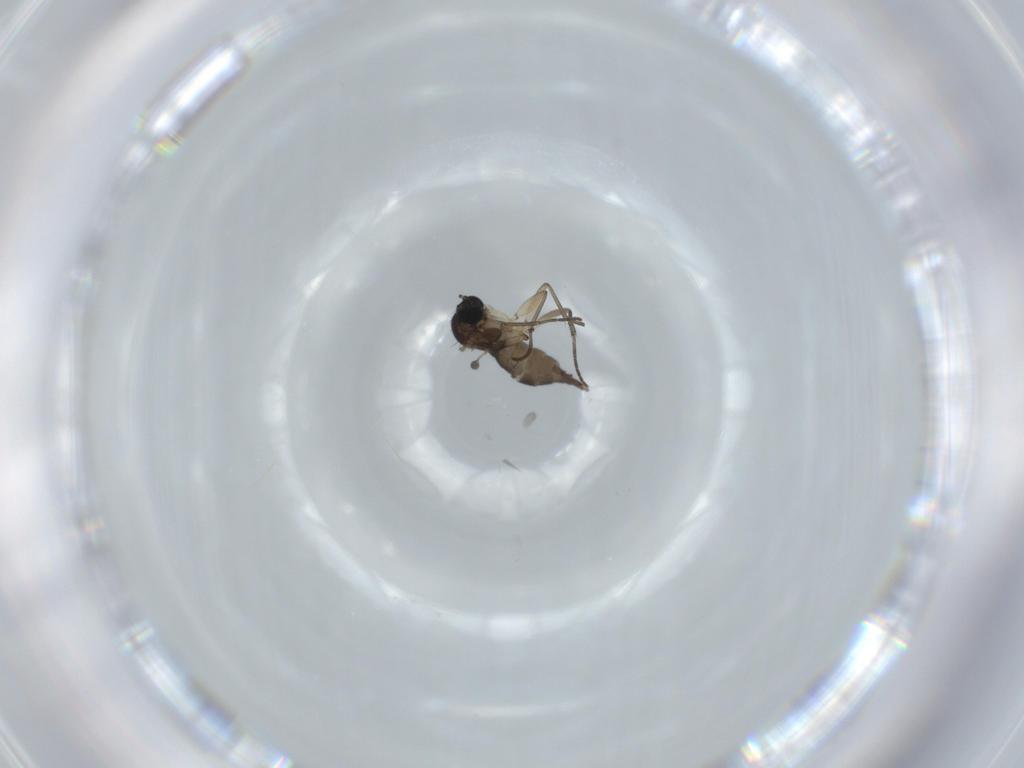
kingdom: Animalia
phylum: Arthropoda
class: Insecta
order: Diptera
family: Sciaridae
